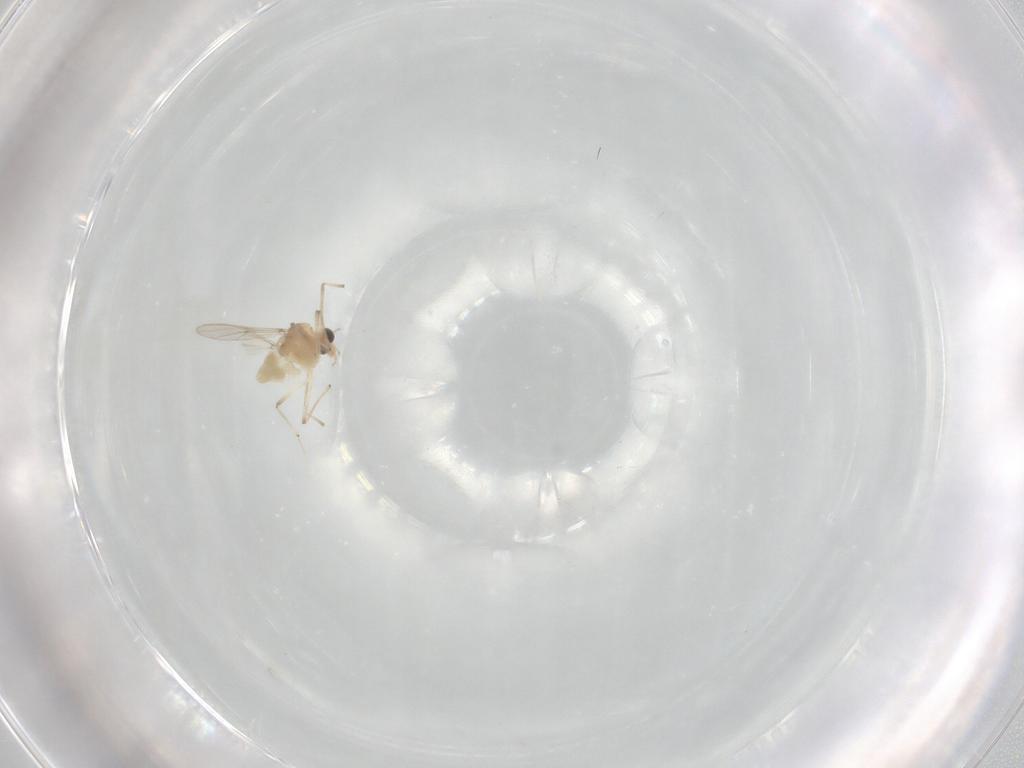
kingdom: Animalia
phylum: Arthropoda
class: Insecta
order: Diptera
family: Chironomidae
